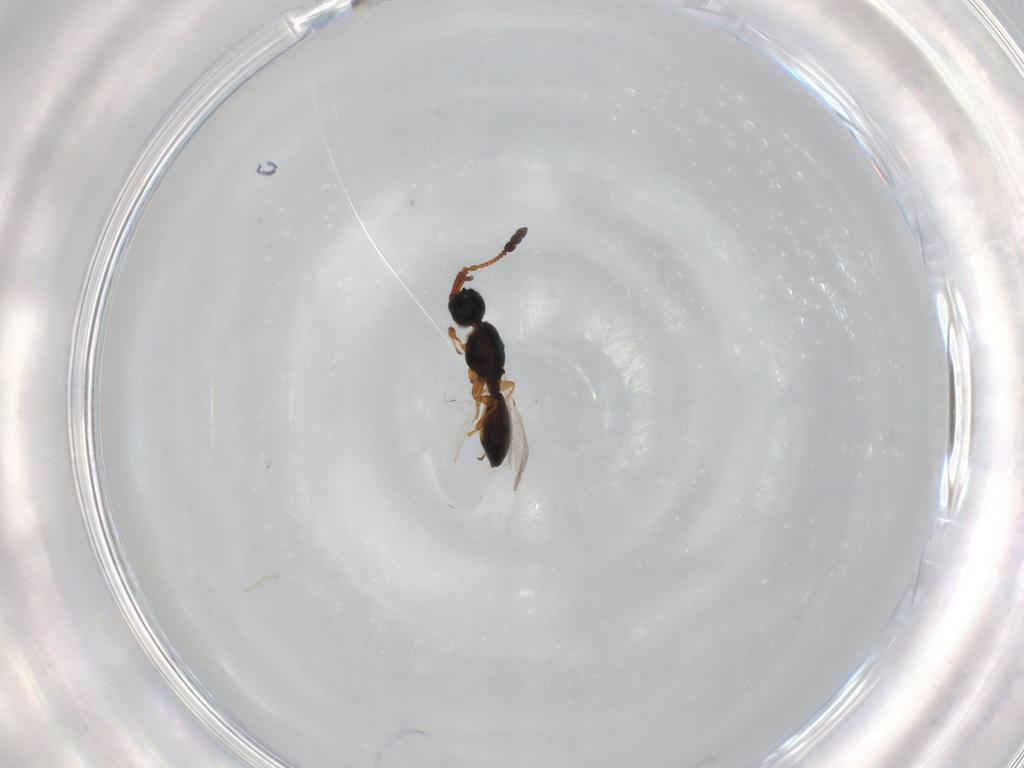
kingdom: Animalia
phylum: Arthropoda
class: Insecta
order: Hymenoptera
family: Diapriidae
